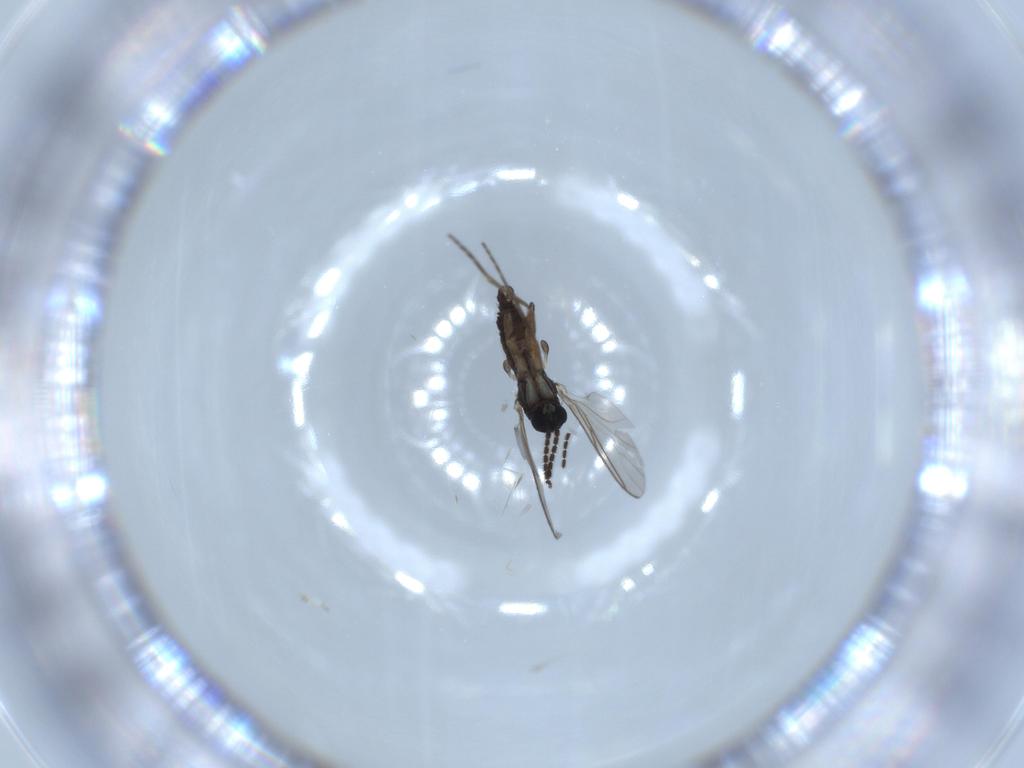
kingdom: Animalia
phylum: Arthropoda
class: Insecta
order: Diptera
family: Sciaridae
